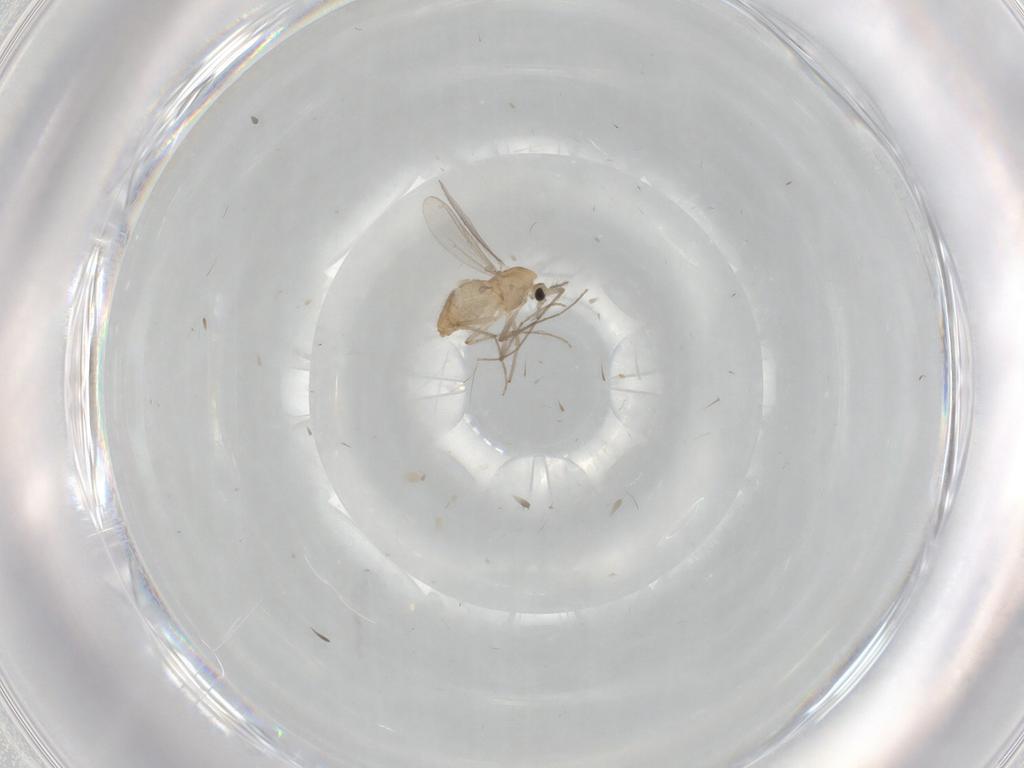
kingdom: Animalia
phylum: Arthropoda
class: Insecta
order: Diptera
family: Chironomidae
